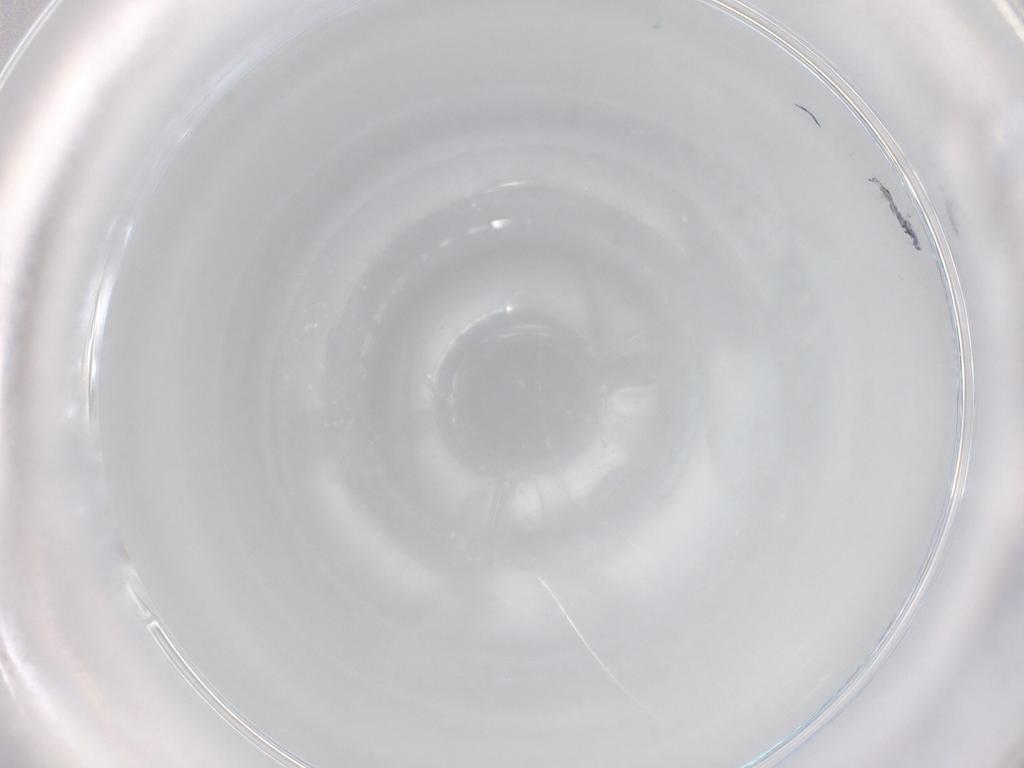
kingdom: Animalia
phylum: Arthropoda
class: Collembola
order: Entomobryomorpha
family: Entomobryidae
